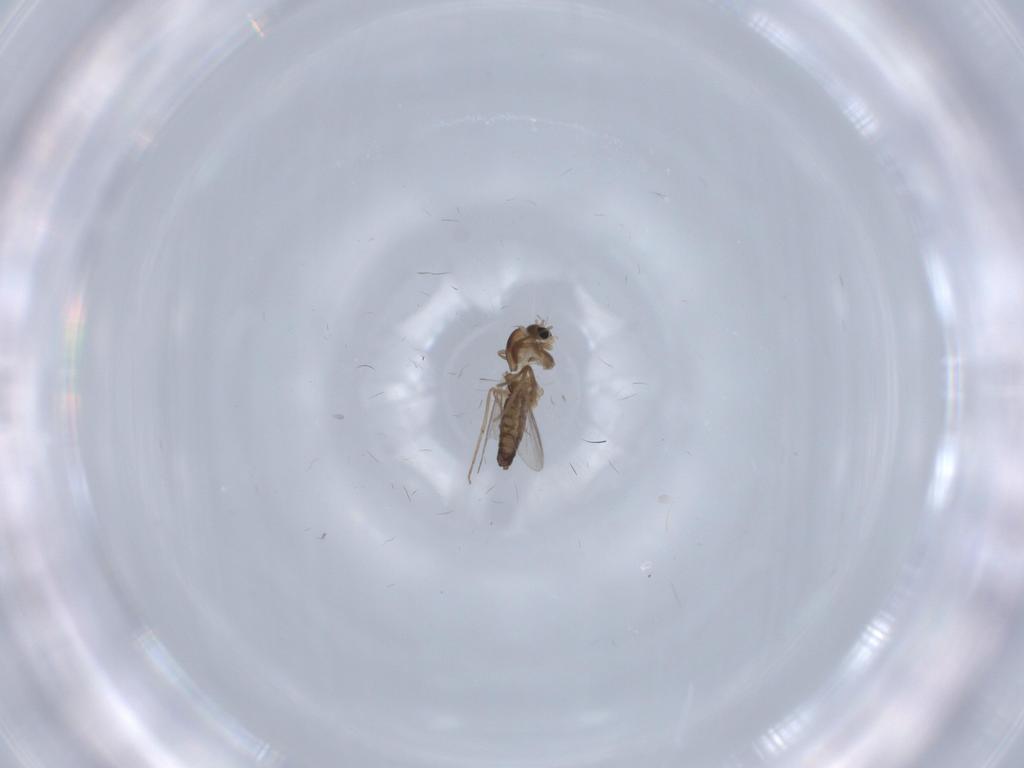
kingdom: Animalia
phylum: Arthropoda
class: Insecta
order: Diptera
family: Chironomidae
